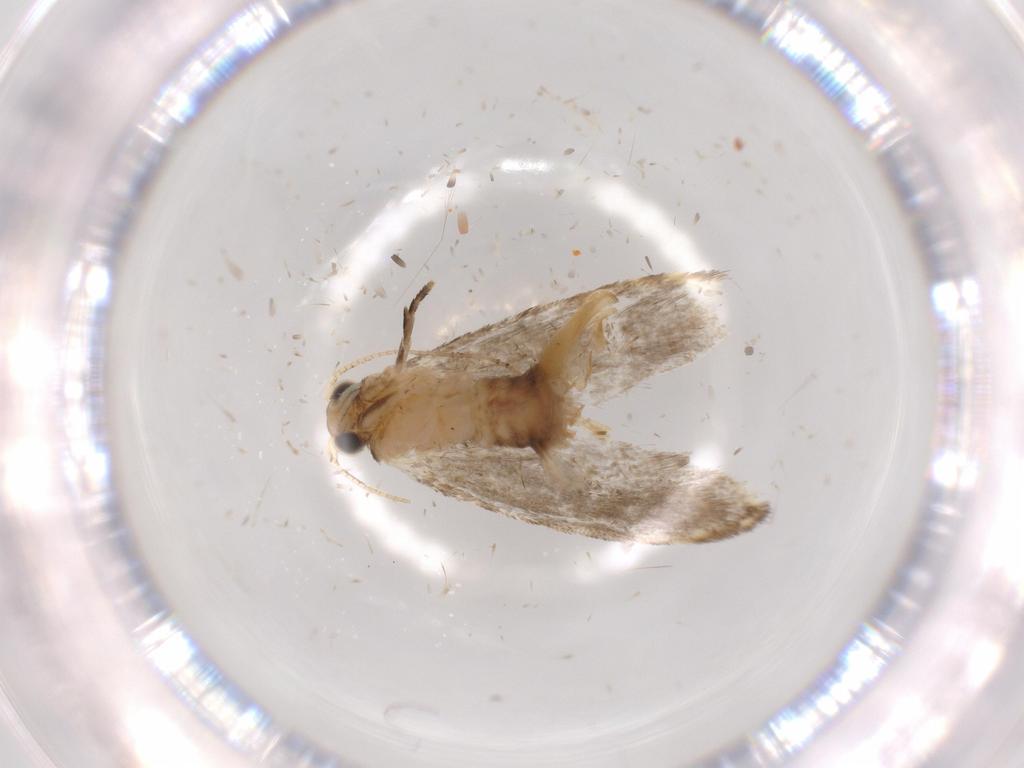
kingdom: Animalia
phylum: Arthropoda
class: Insecta
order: Lepidoptera
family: Tineidae
